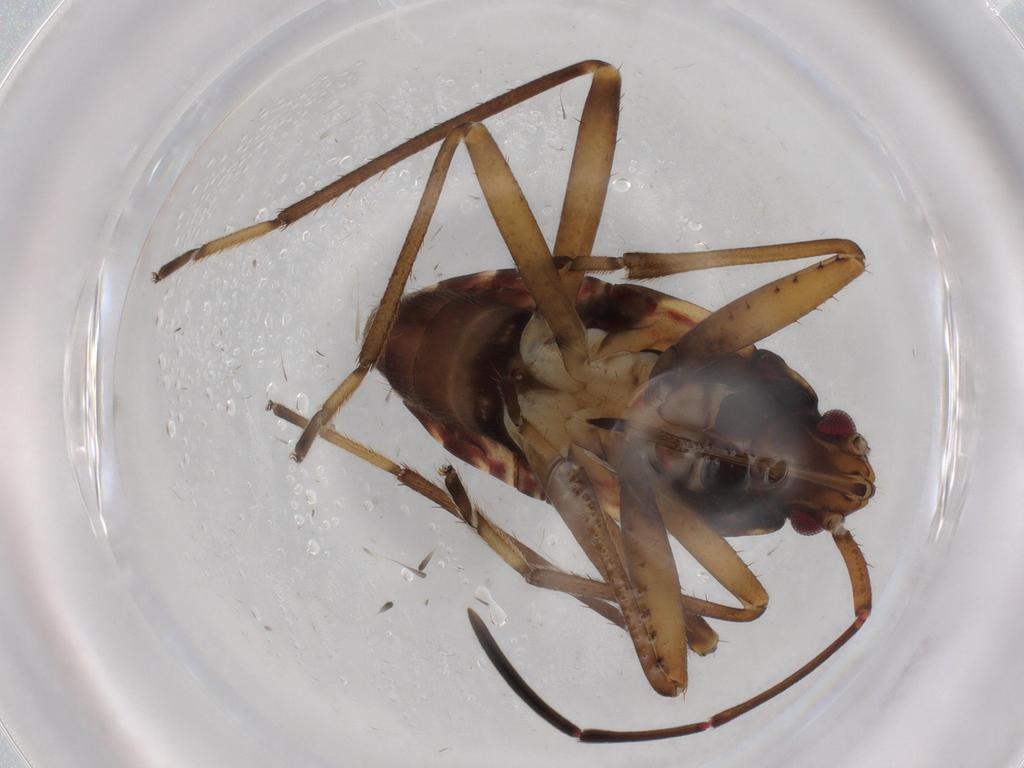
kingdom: Animalia
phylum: Arthropoda
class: Insecta
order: Hemiptera
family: Rhyparochromidae
